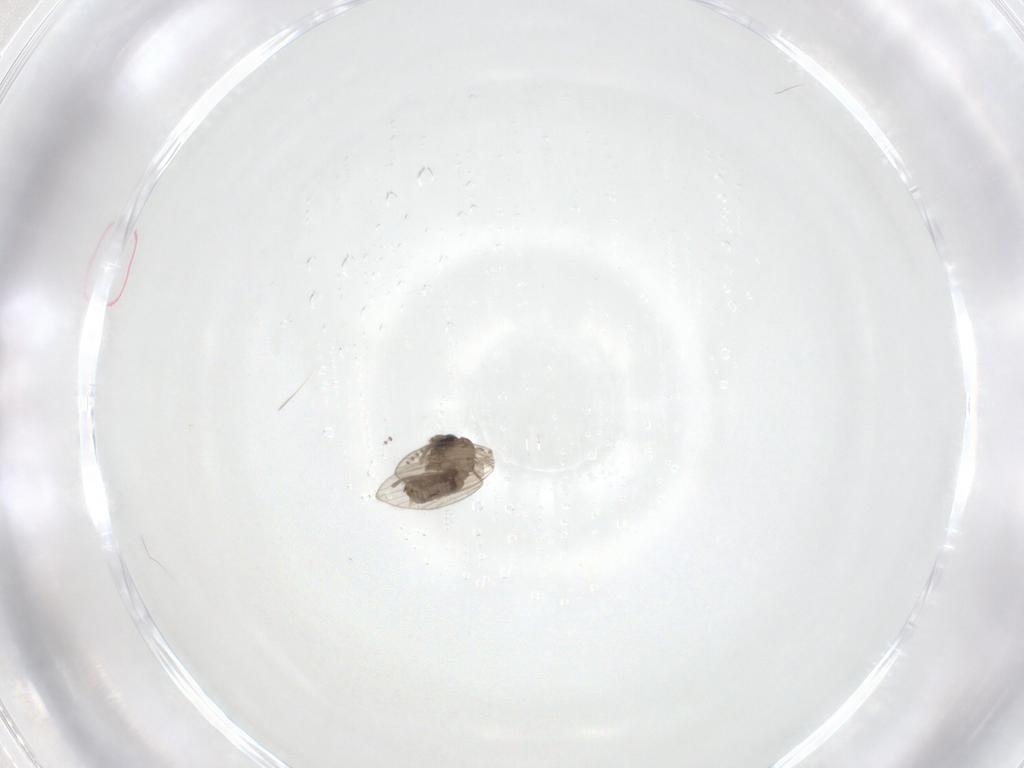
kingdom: Animalia
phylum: Arthropoda
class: Insecta
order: Diptera
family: Psychodidae
